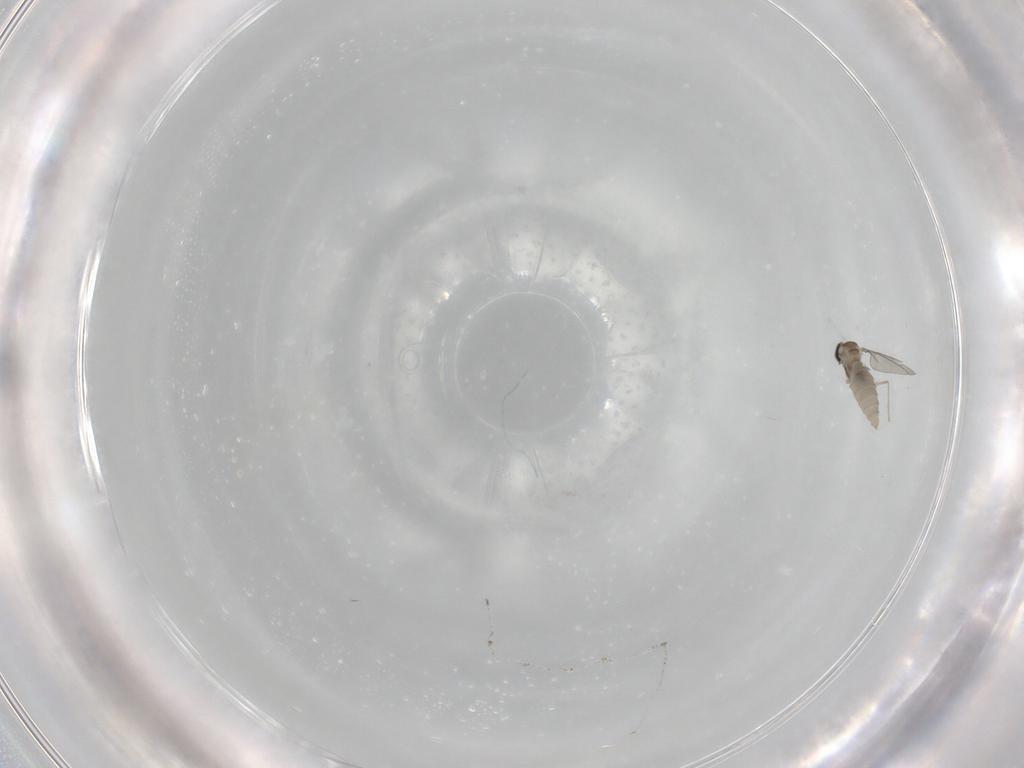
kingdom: Animalia
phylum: Arthropoda
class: Insecta
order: Diptera
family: Cecidomyiidae
